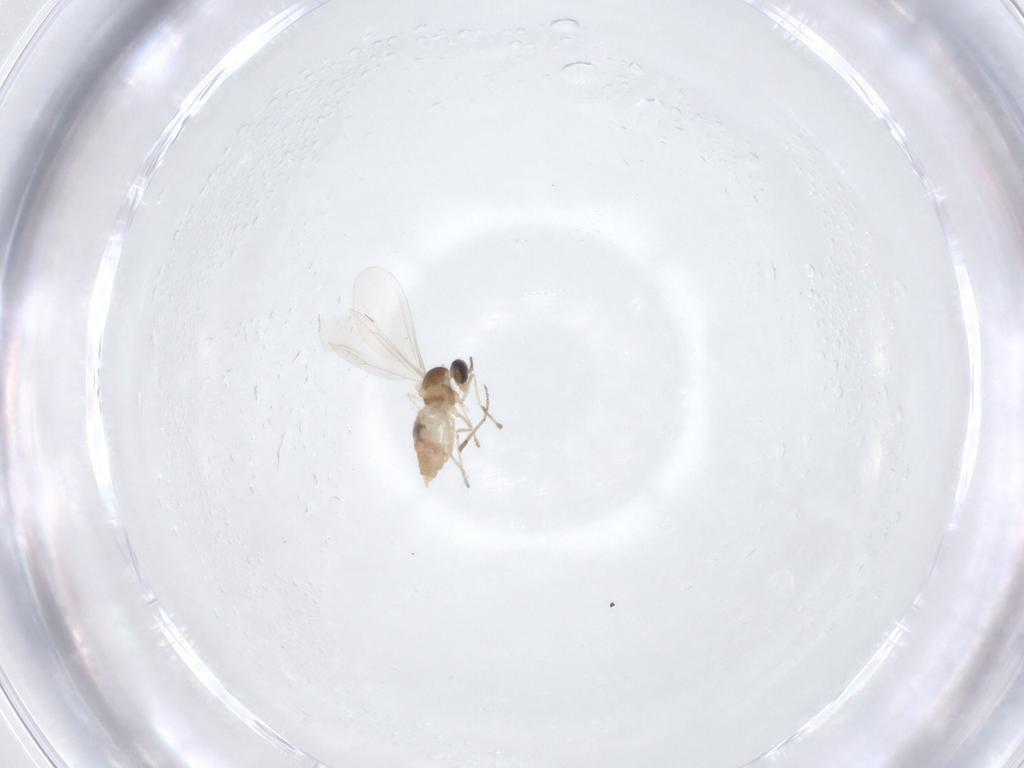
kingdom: Animalia
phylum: Arthropoda
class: Insecta
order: Diptera
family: Cecidomyiidae
